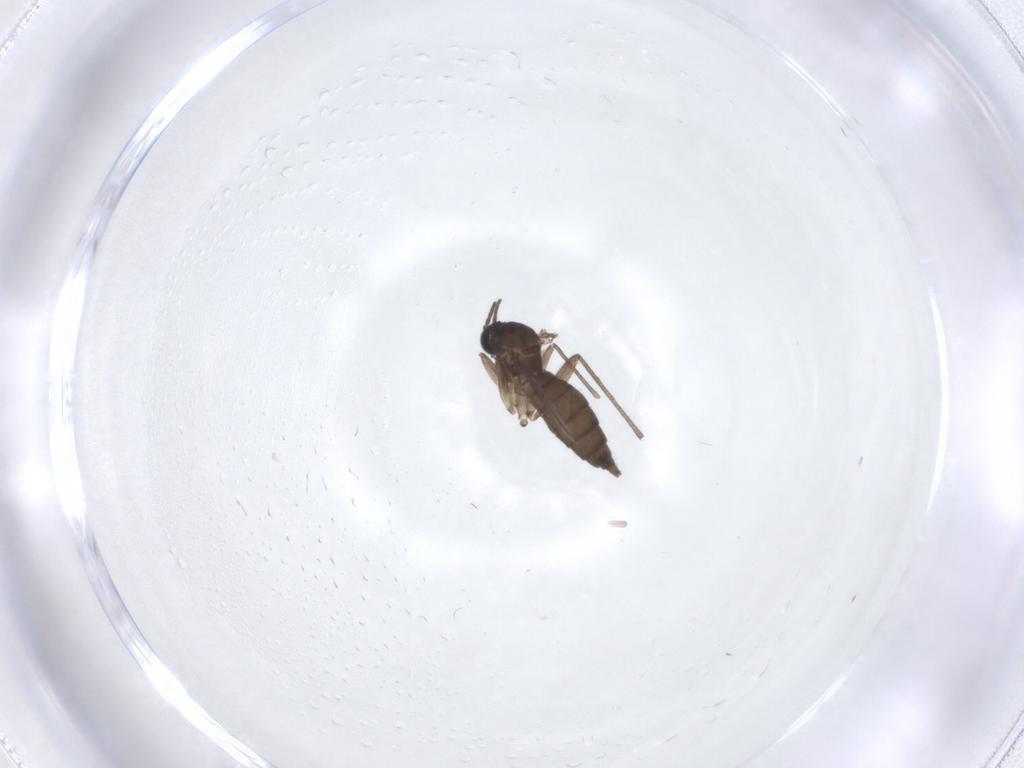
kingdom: Animalia
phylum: Arthropoda
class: Insecta
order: Diptera
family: Sciaridae
